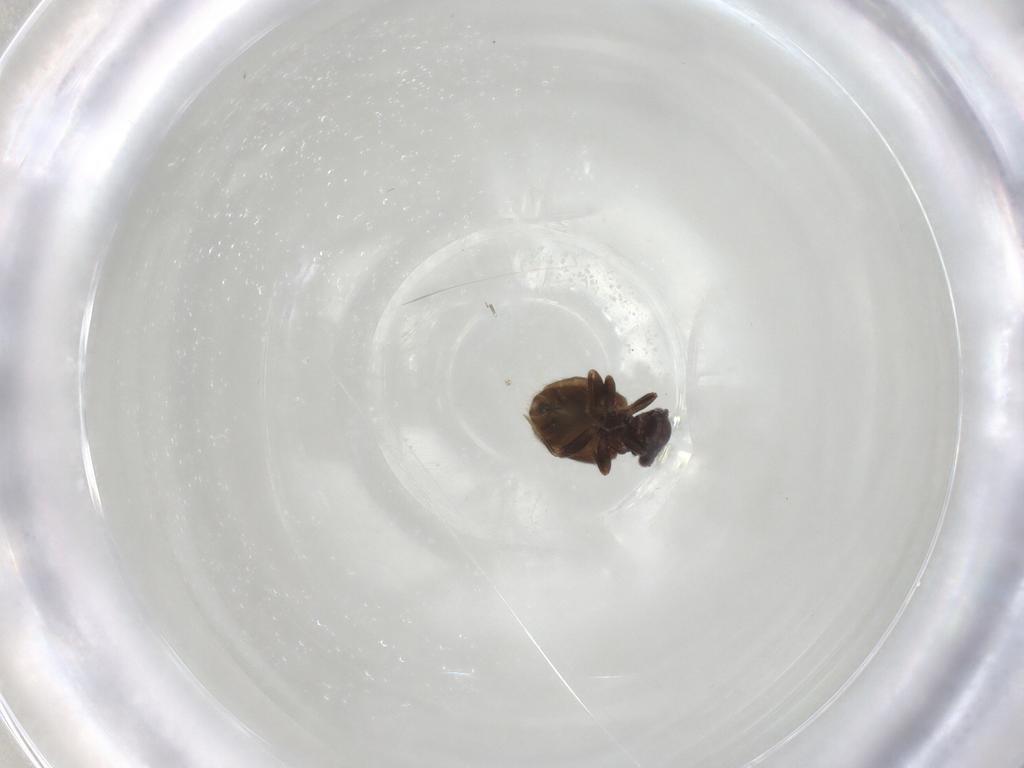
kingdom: Animalia
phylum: Arthropoda
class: Insecta
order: Psocodea
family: Trogiidae
